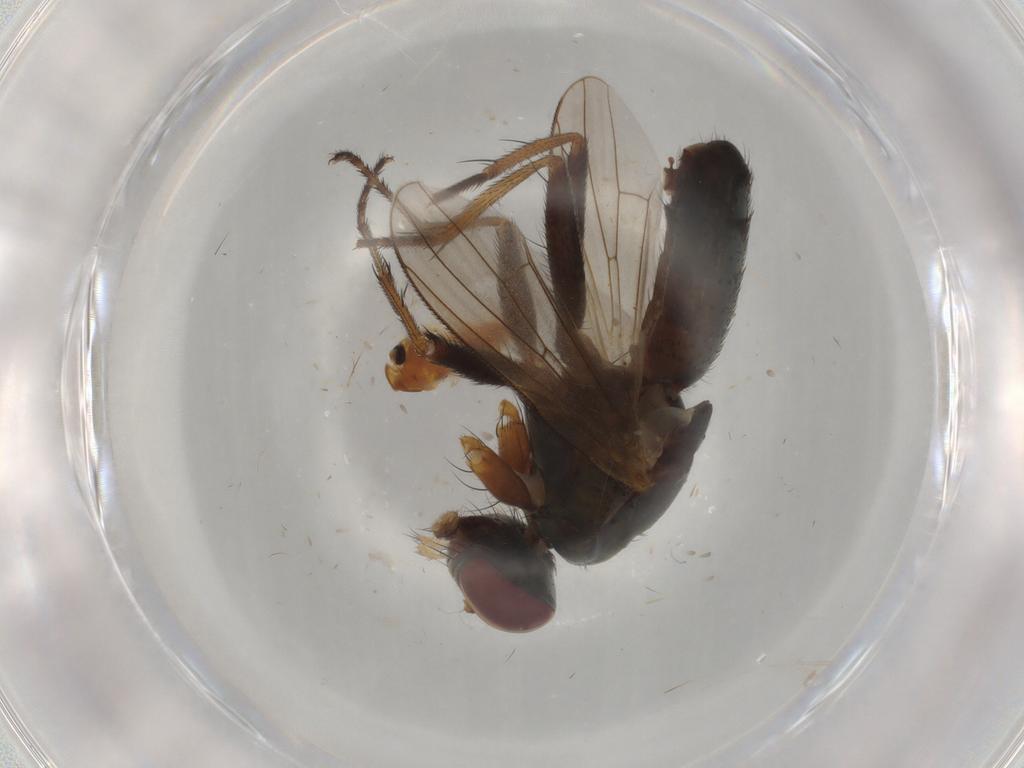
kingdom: Animalia
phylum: Arthropoda
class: Insecta
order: Diptera
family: Muscidae
